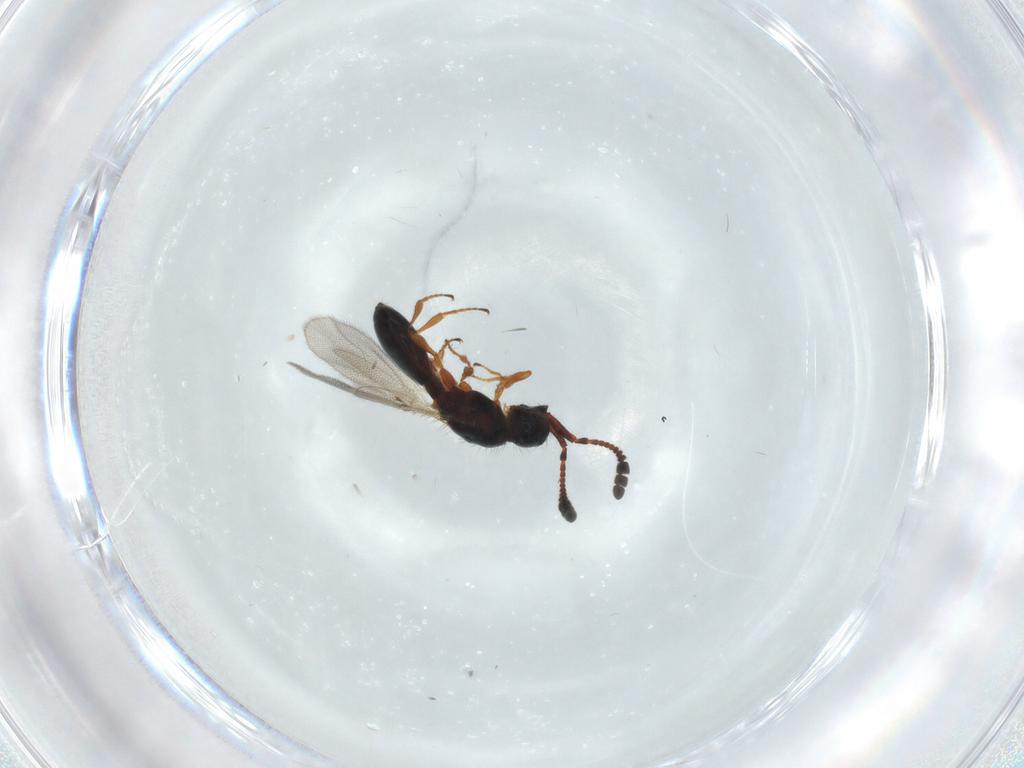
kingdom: Animalia
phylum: Arthropoda
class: Insecta
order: Hymenoptera
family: Diapriidae
